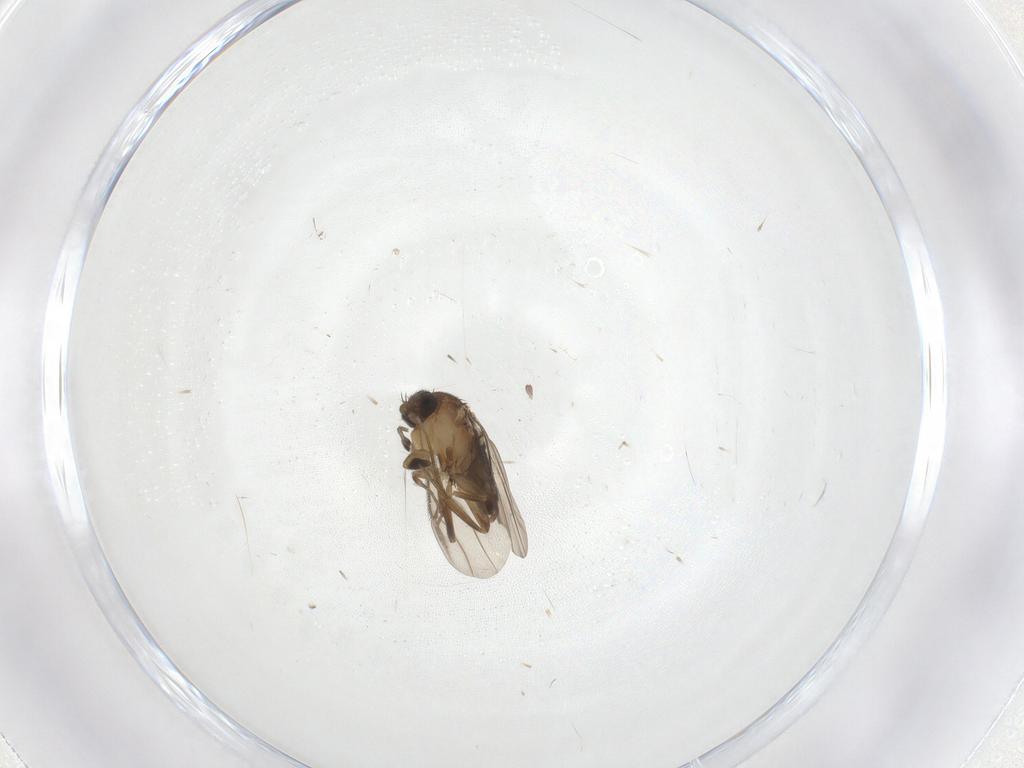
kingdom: Animalia
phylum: Arthropoda
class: Insecta
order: Diptera
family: Phoridae
